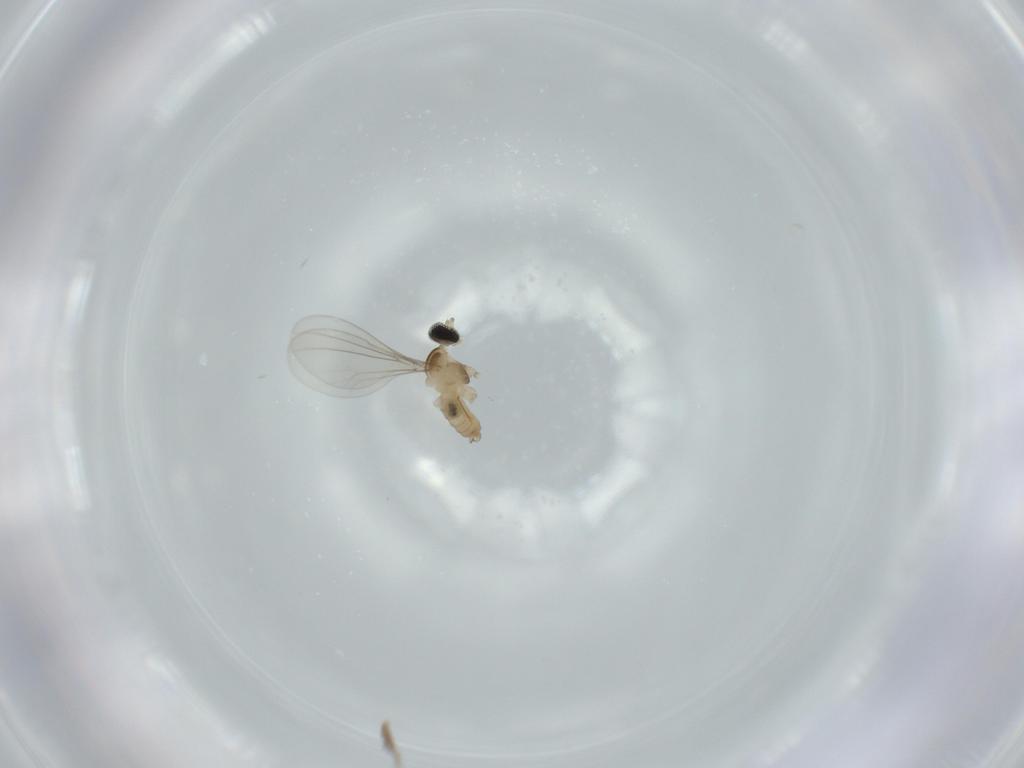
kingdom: Animalia
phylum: Arthropoda
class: Insecta
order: Diptera
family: Cecidomyiidae
